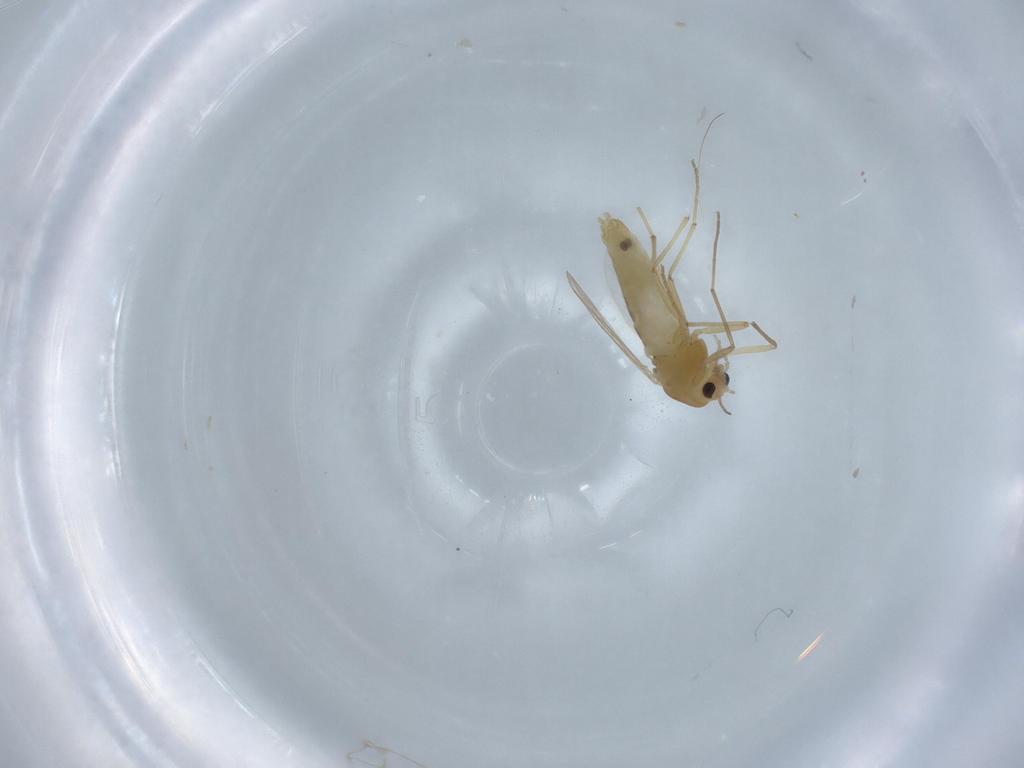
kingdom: Animalia
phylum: Arthropoda
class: Insecta
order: Diptera
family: Chironomidae
